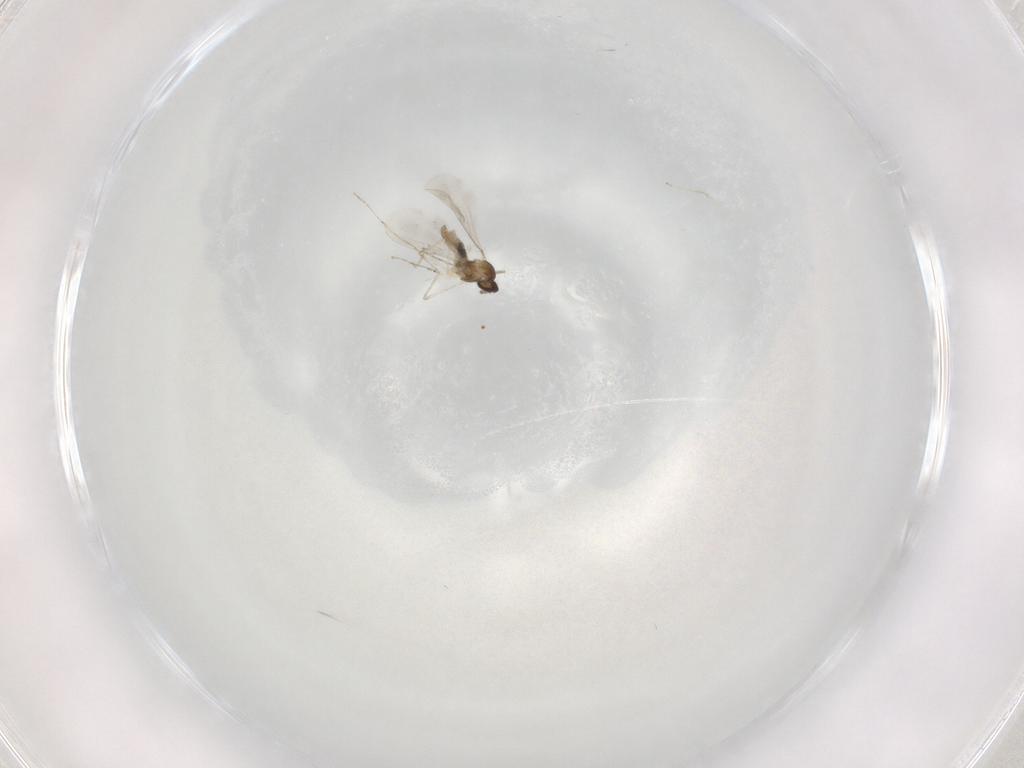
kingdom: Animalia
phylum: Arthropoda
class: Insecta
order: Diptera
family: Cecidomyiidae
